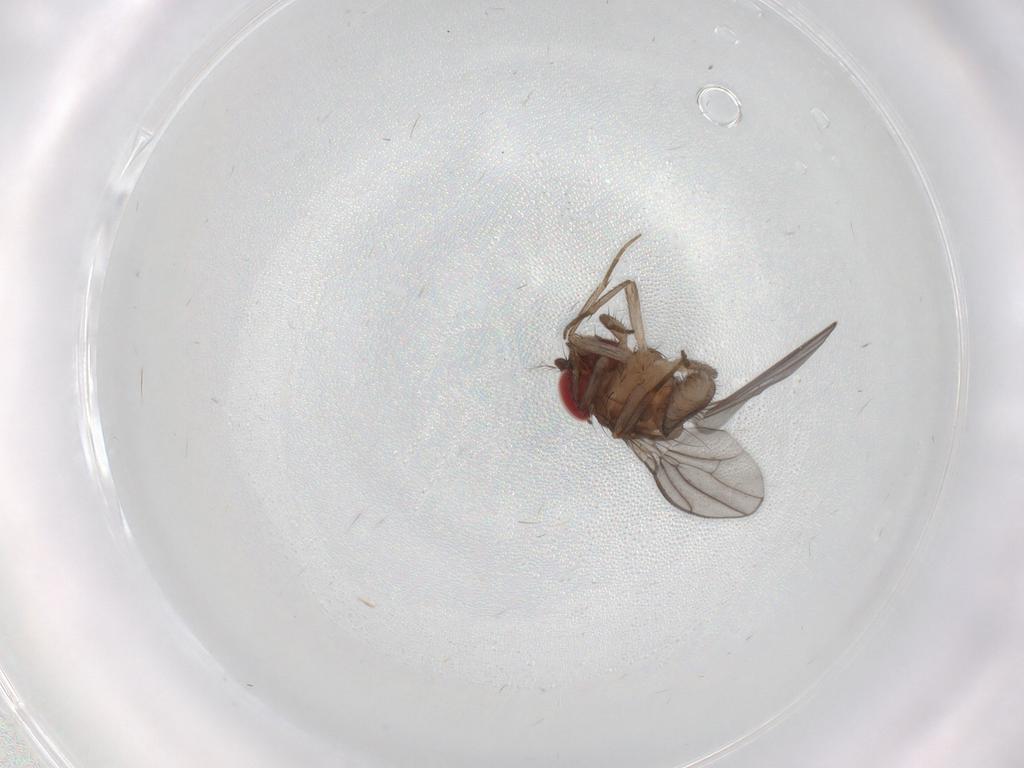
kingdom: Animalia
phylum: Arthropoda
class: Insecta
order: Diptera
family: Drosophilidae
